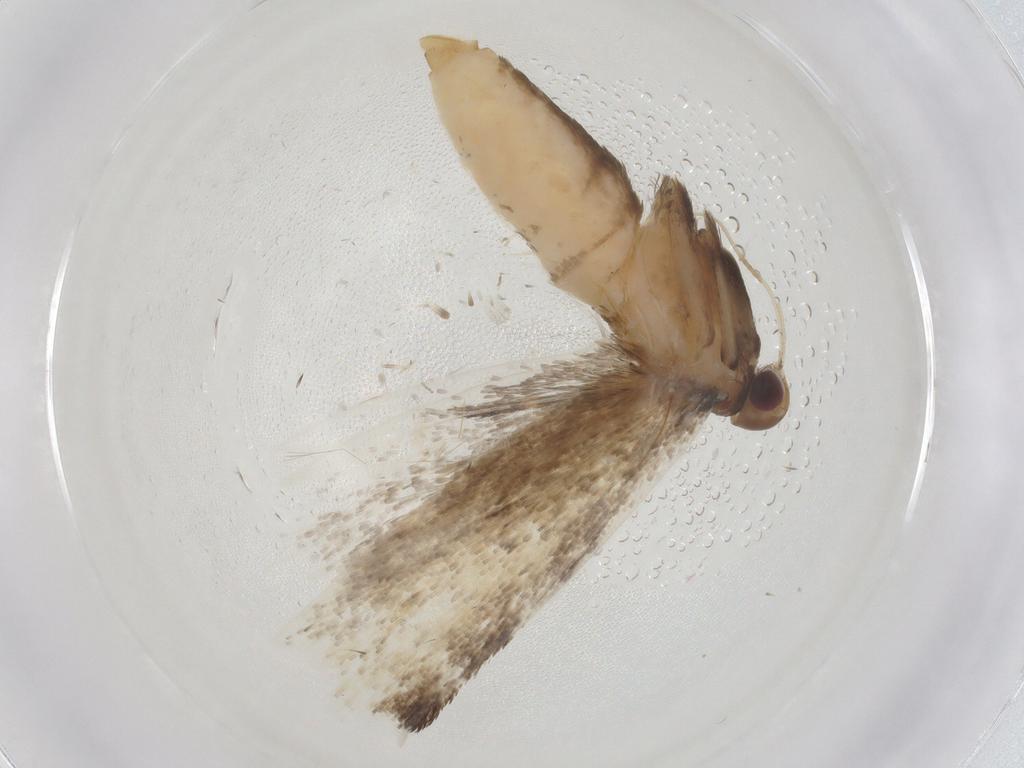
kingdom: Animalia
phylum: Arthropoda
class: Insecta
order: Lepidoptera
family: Crambidae
